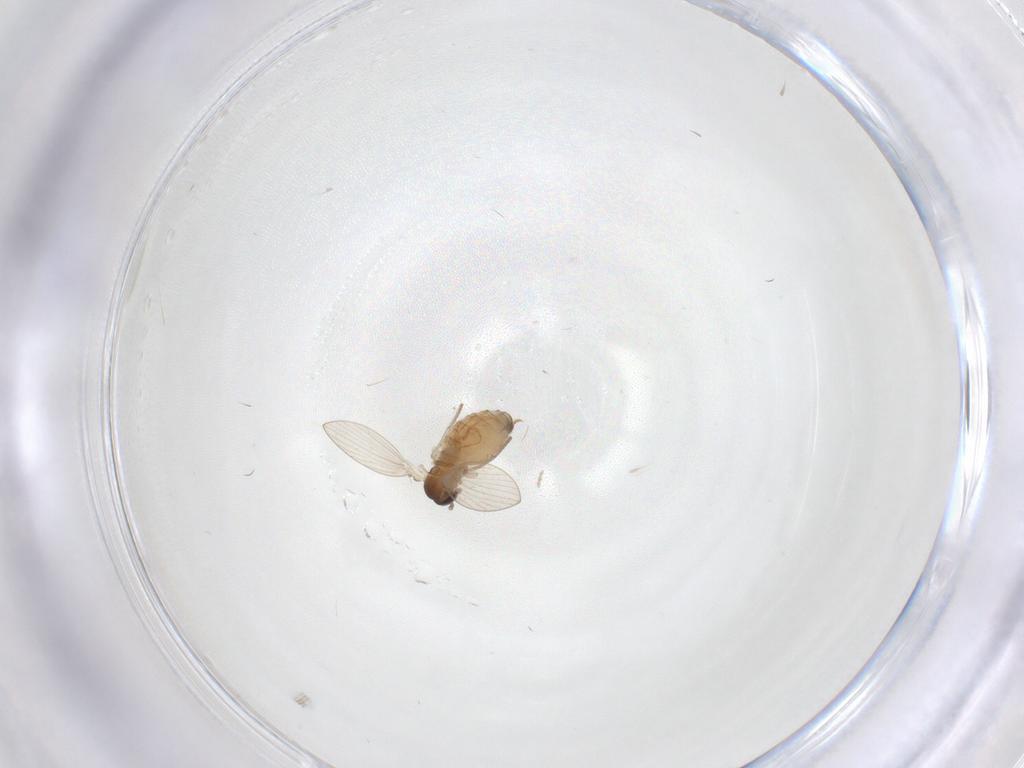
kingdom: Animalia
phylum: Arthropoda
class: Insecta
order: Diptera
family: Psychodidae
